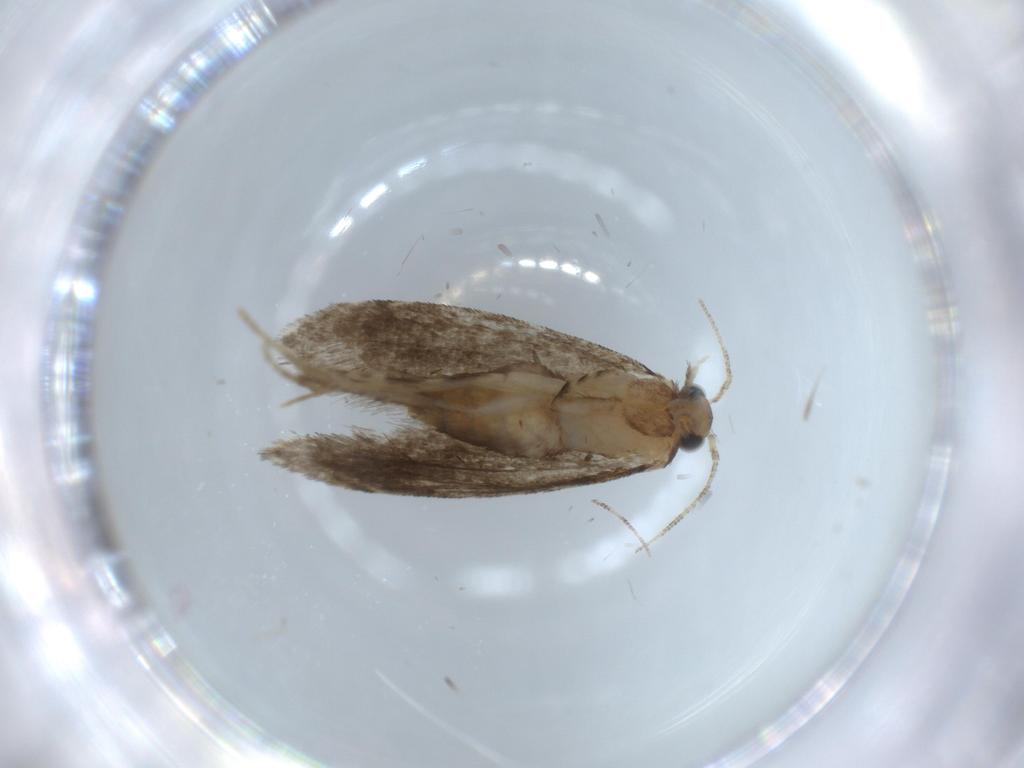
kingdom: Animalia
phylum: Arthropoda
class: Insecta
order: Lepidoptera
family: Tineidae
